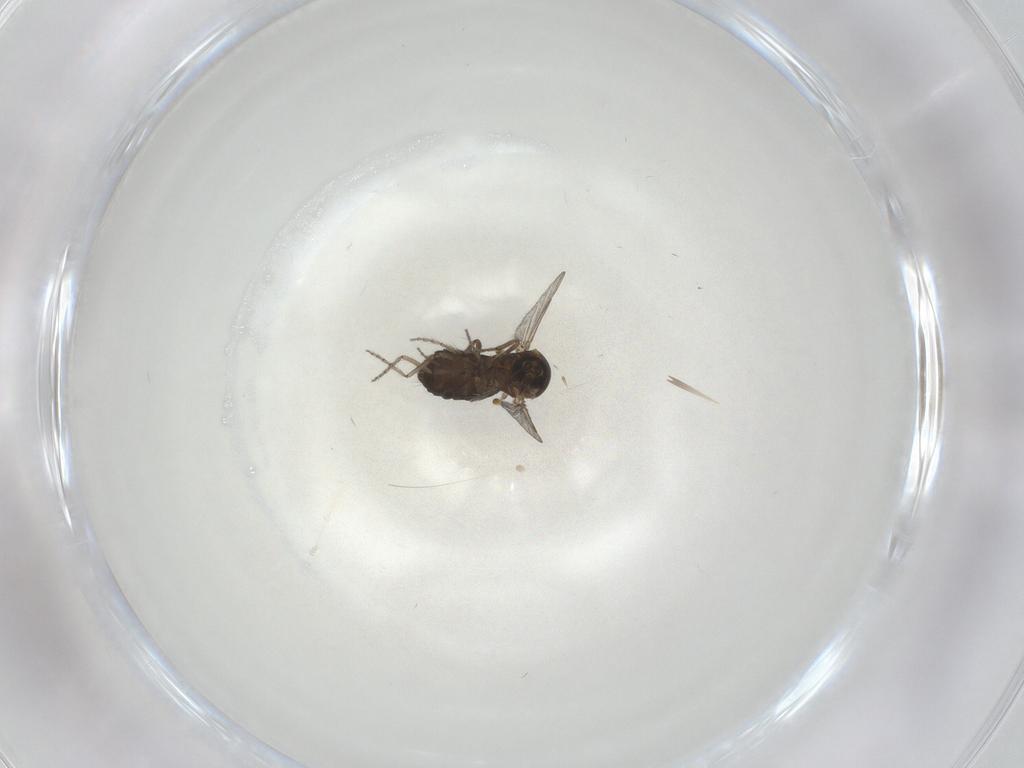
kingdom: Animalia
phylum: Arthropoda
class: Insecta
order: Diptera
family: Ceratopogonidae
